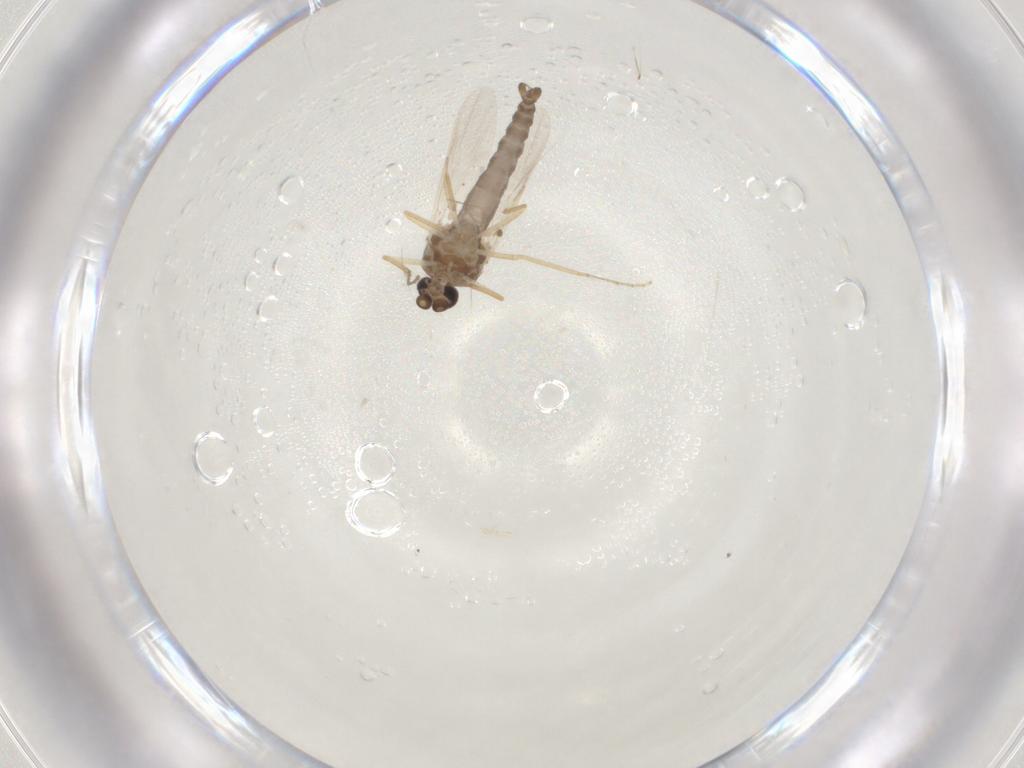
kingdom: Animalia
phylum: Arthropoda
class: Insecta
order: Diptera
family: Ceratopogonidae
